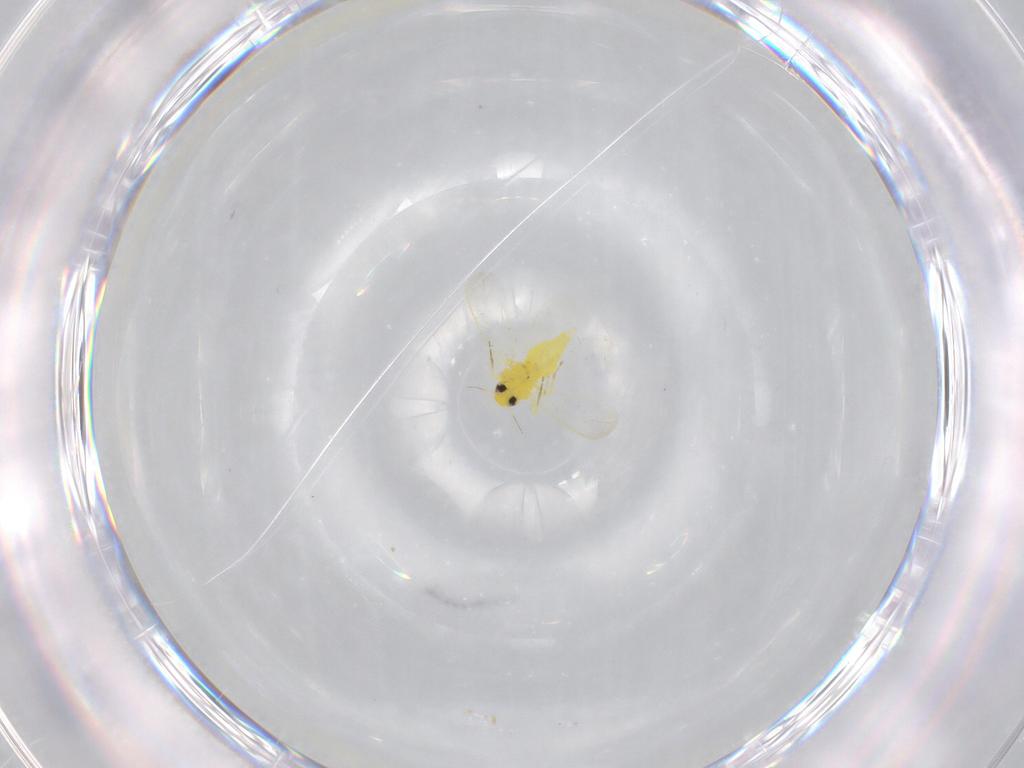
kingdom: Animalia
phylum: Arthropoda
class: Insecta
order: Hemiptera
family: Aleyrodidae
